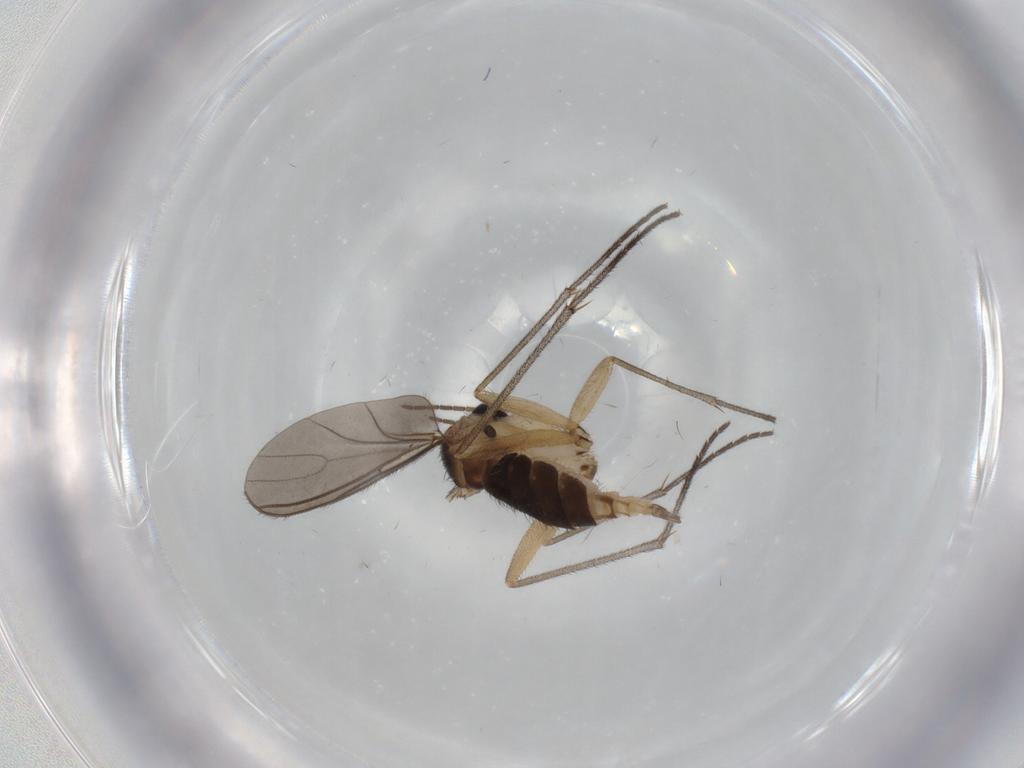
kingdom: Animalia
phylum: Arthropoda
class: Insecta
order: Diptera
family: Sciaridae
